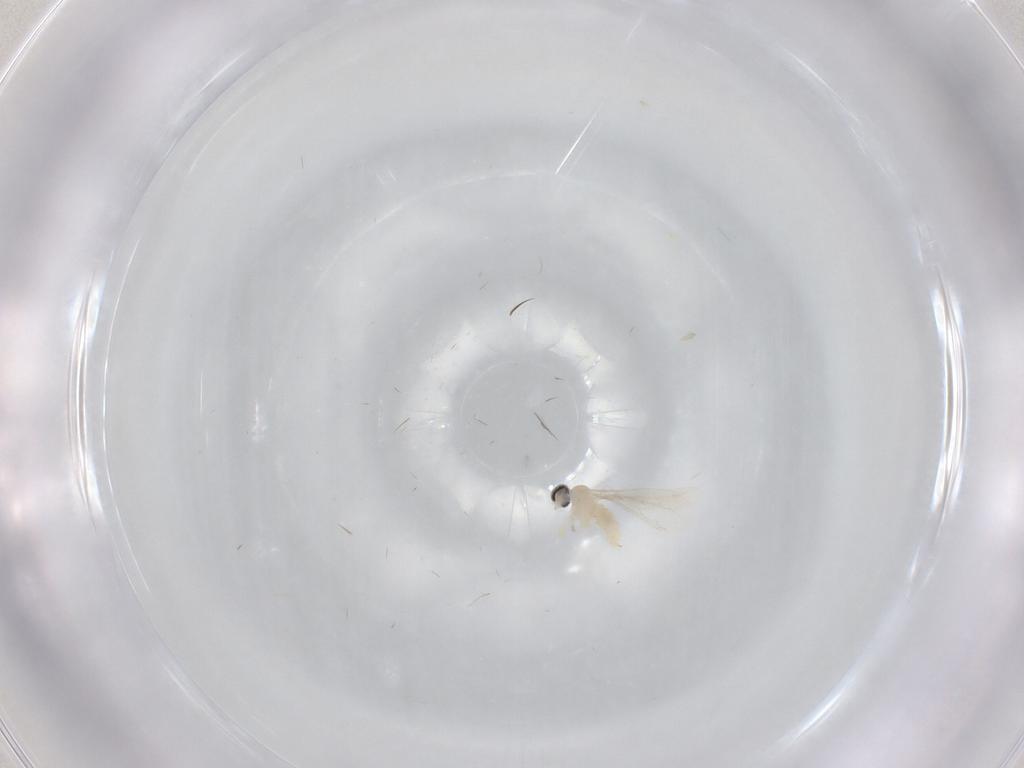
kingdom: Animalia
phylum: Arthropoda
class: Insecta
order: Diptera
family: Cecidomyiidae
